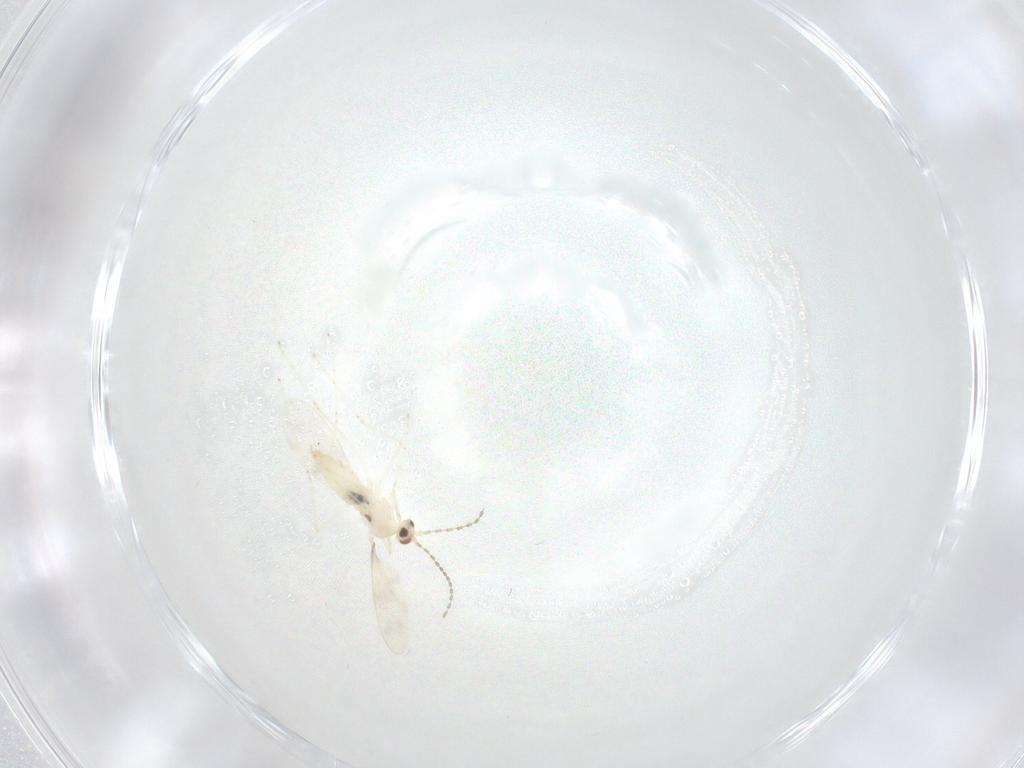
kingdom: Animalia
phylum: Arthropoda
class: Insecta
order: Diptera
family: Cecidomyiidae
